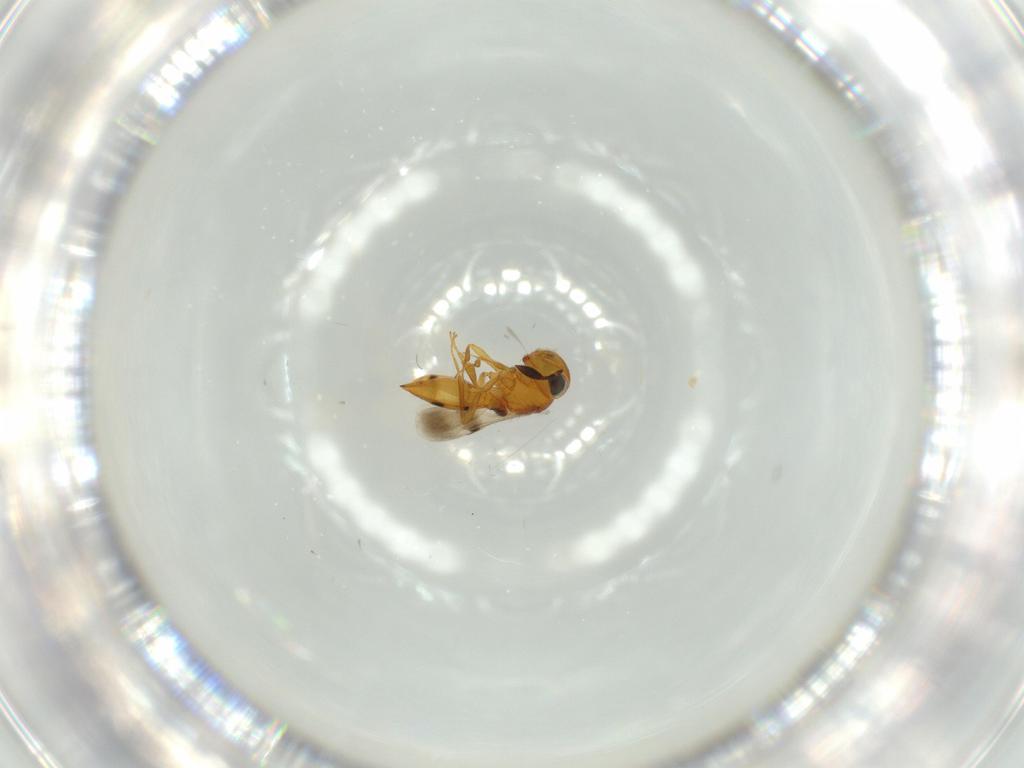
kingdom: Animalia
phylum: Arthropoda
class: Insecta
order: Hymenoptera
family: Scelionidae
